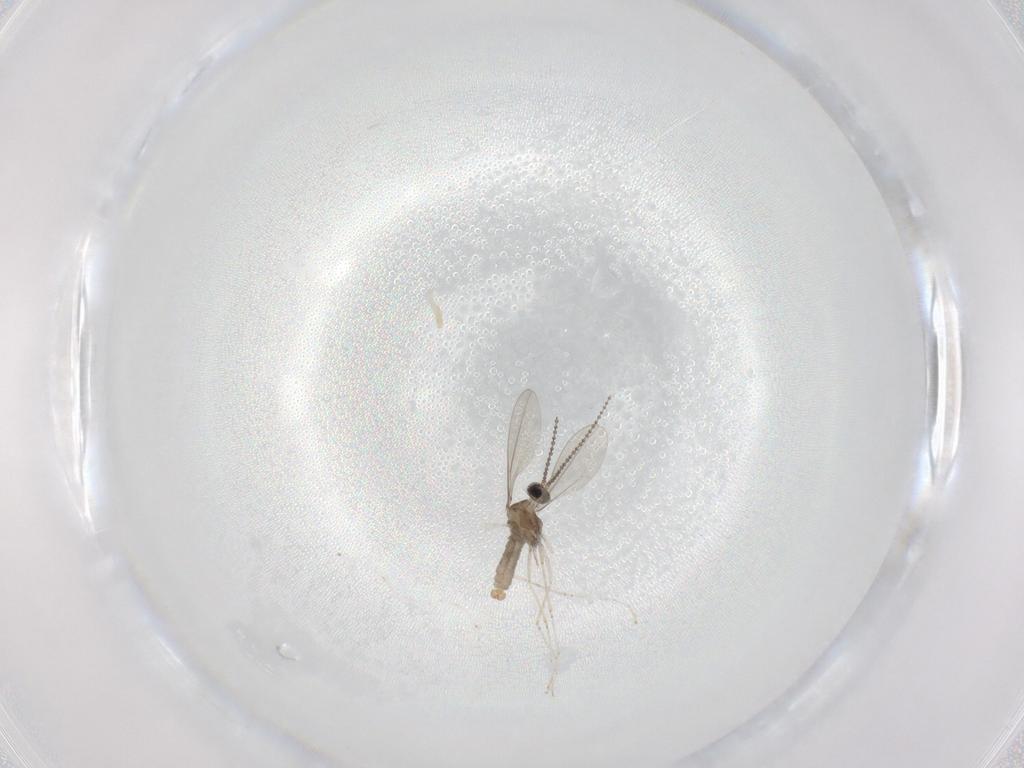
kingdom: Animalia
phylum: Arthropoda
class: Insecta
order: Diptera
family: Cecidomyiidae
